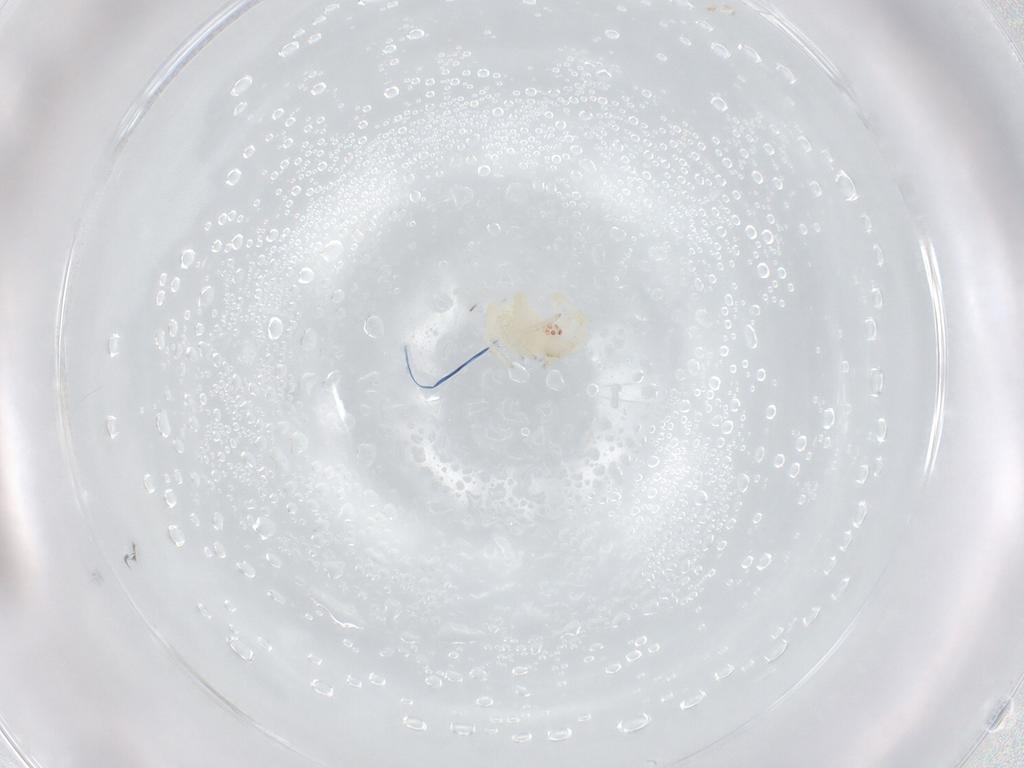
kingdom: Animalia
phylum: Arthropoda
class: Arachnida
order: Araneae
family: Theridiidae
